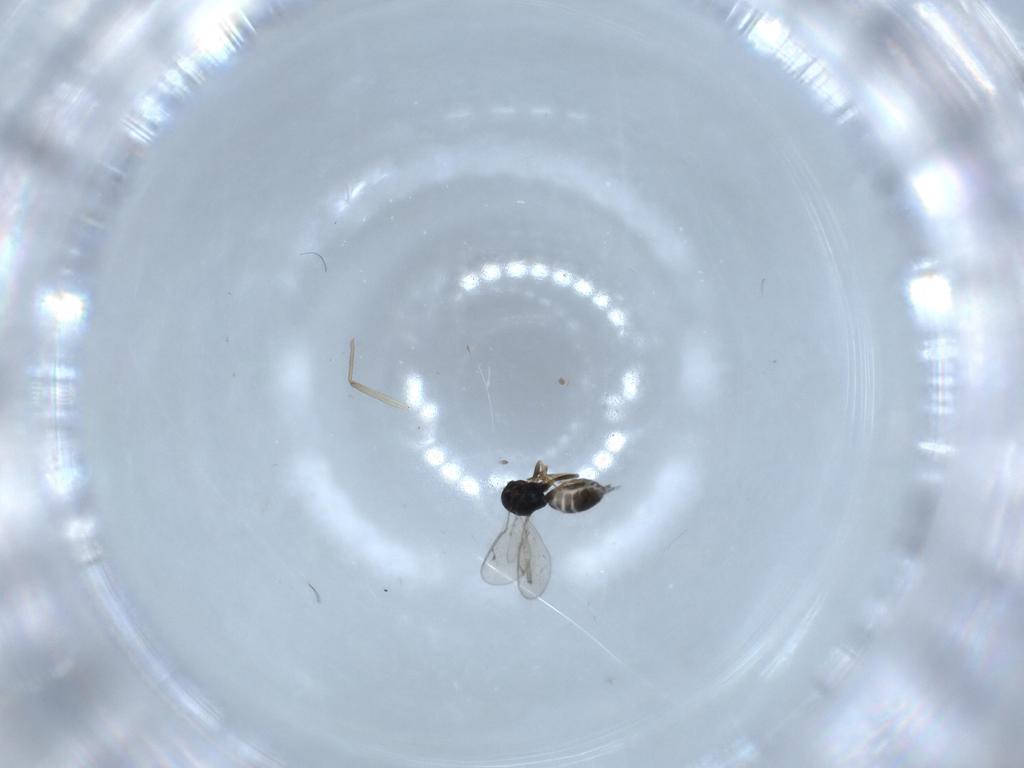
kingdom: Animalia
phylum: Arthropoda
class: Insecta
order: Hymenoptera
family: Pteromalidae
